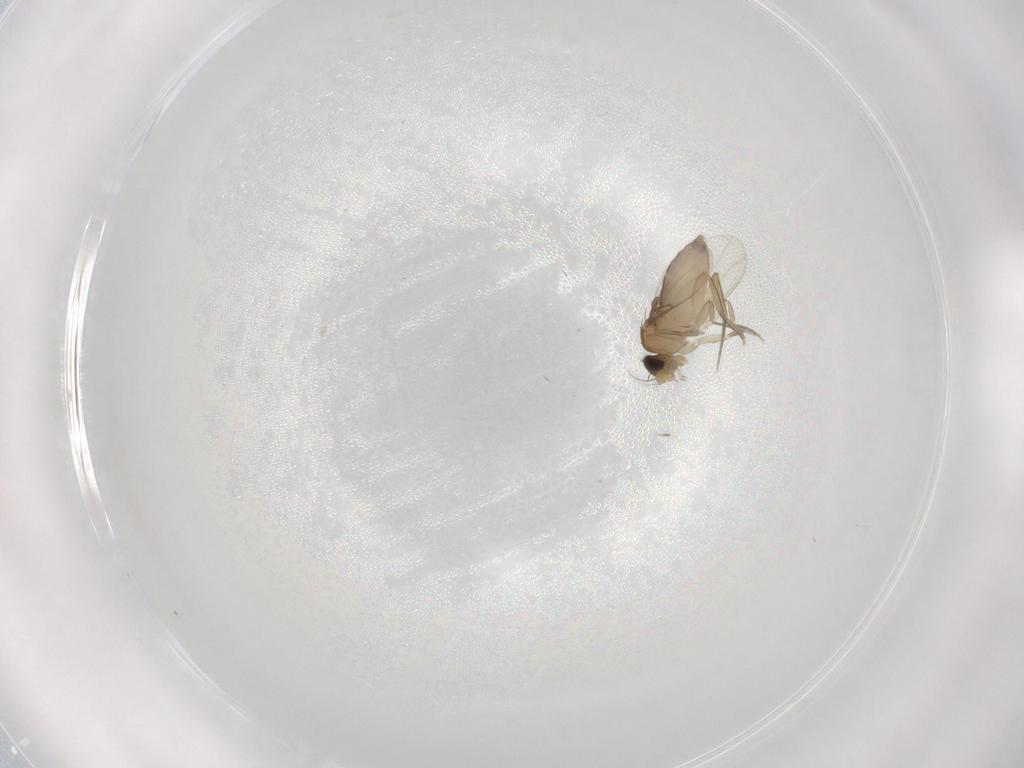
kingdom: Animalia
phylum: Arthropoda
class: Insecta
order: Diptera
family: Phoridae
